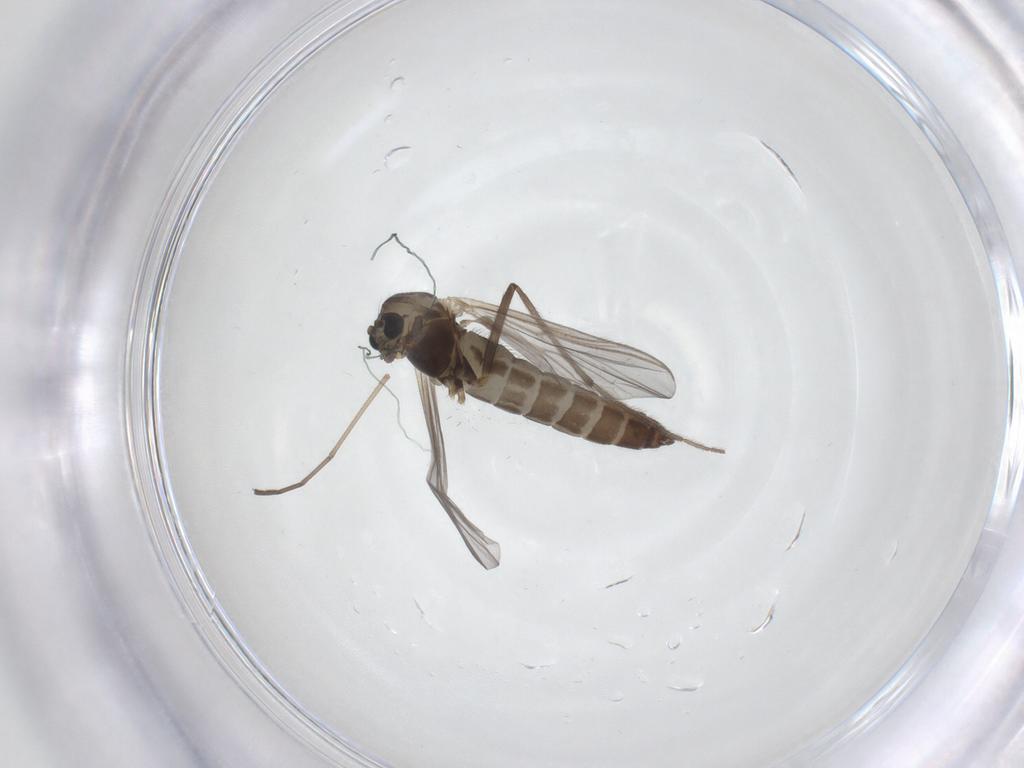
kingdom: Animalia
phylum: Arthropoda
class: Insecta
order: Diptera
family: Chironomidae
